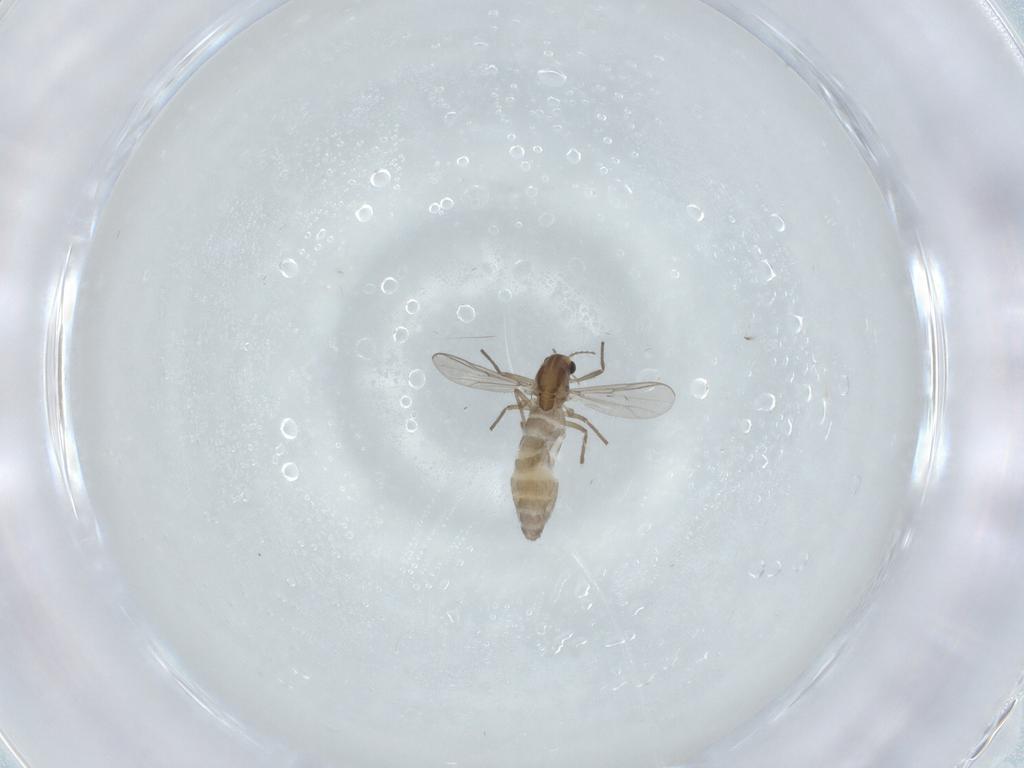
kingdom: Animalia
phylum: Arthropoda
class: Insecta
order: Diptera
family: Chironomidae
